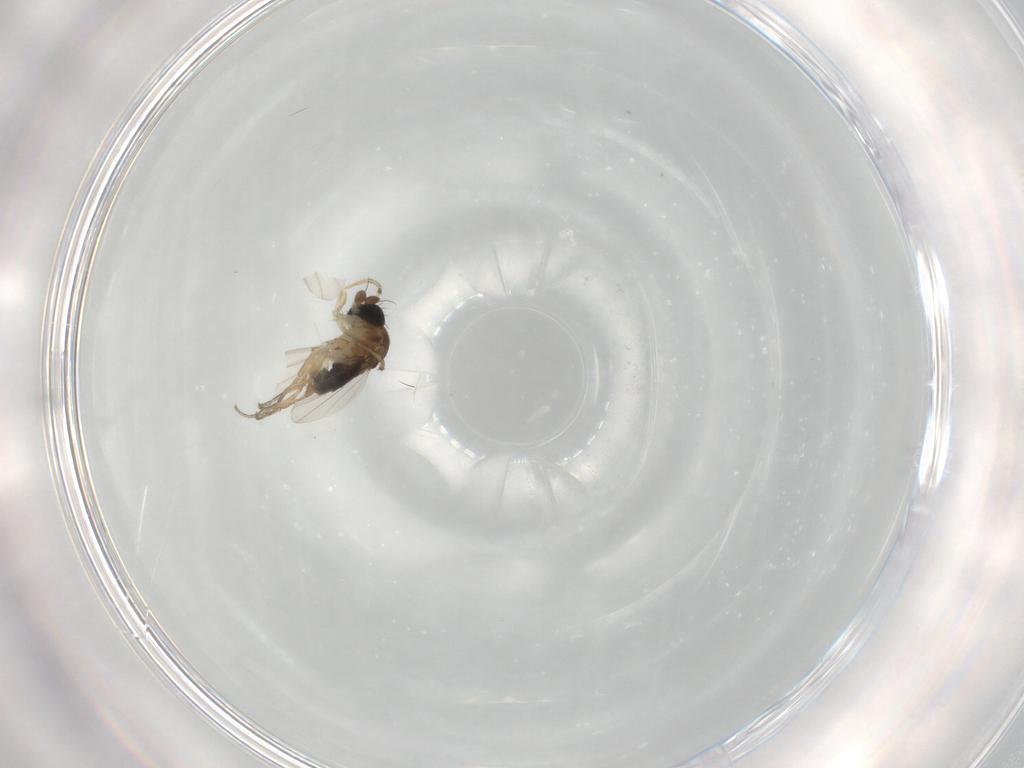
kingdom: Animalia
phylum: Arthropoda
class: Insecta
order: Diptera
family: Phoridae
